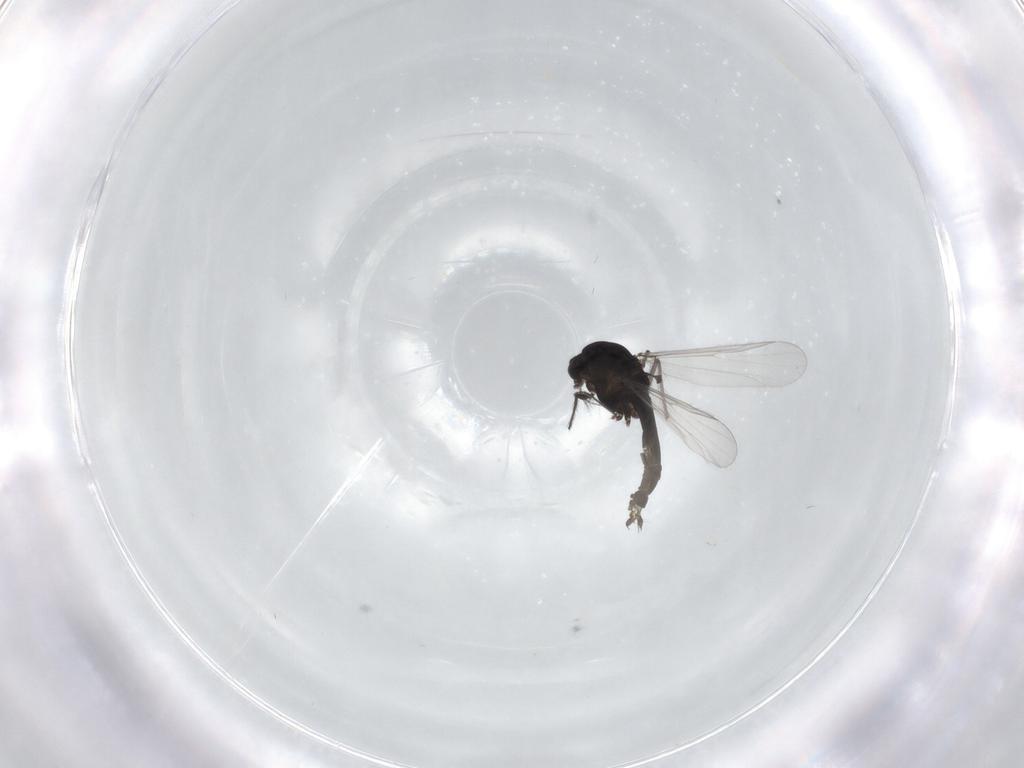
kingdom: Animalia
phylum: Arthropoda
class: Insecta
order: Diptera
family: Chironomidae
